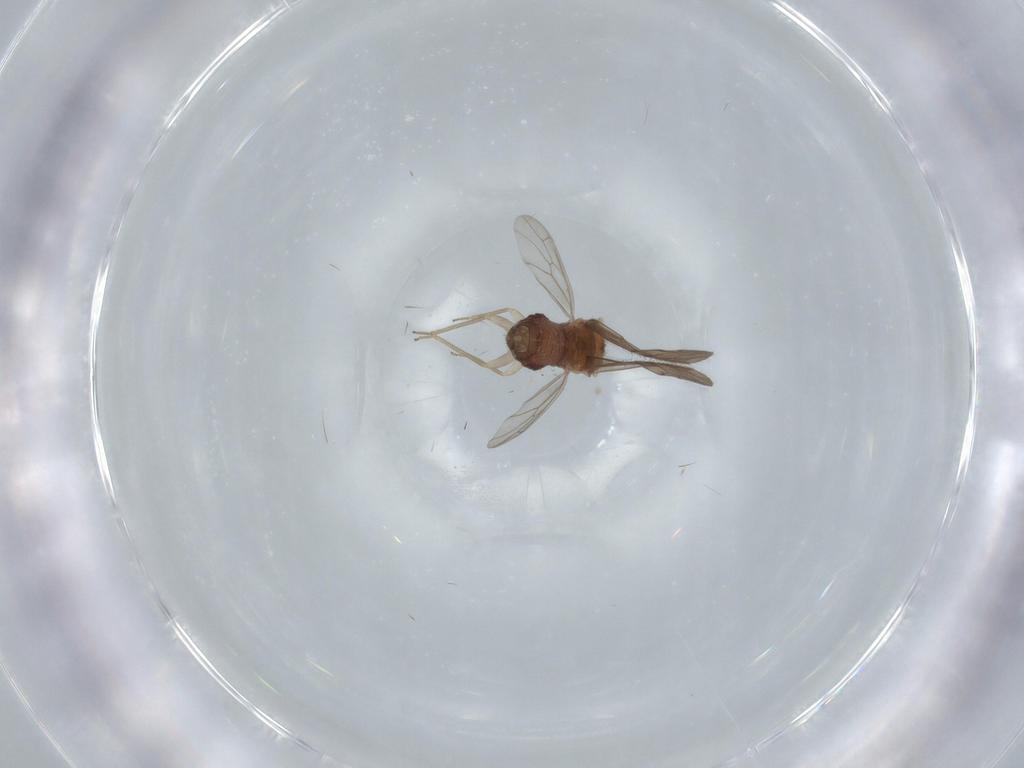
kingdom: Animalia
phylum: Arthropoda
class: Insecta
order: Psocodea
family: Ectopsocidae
